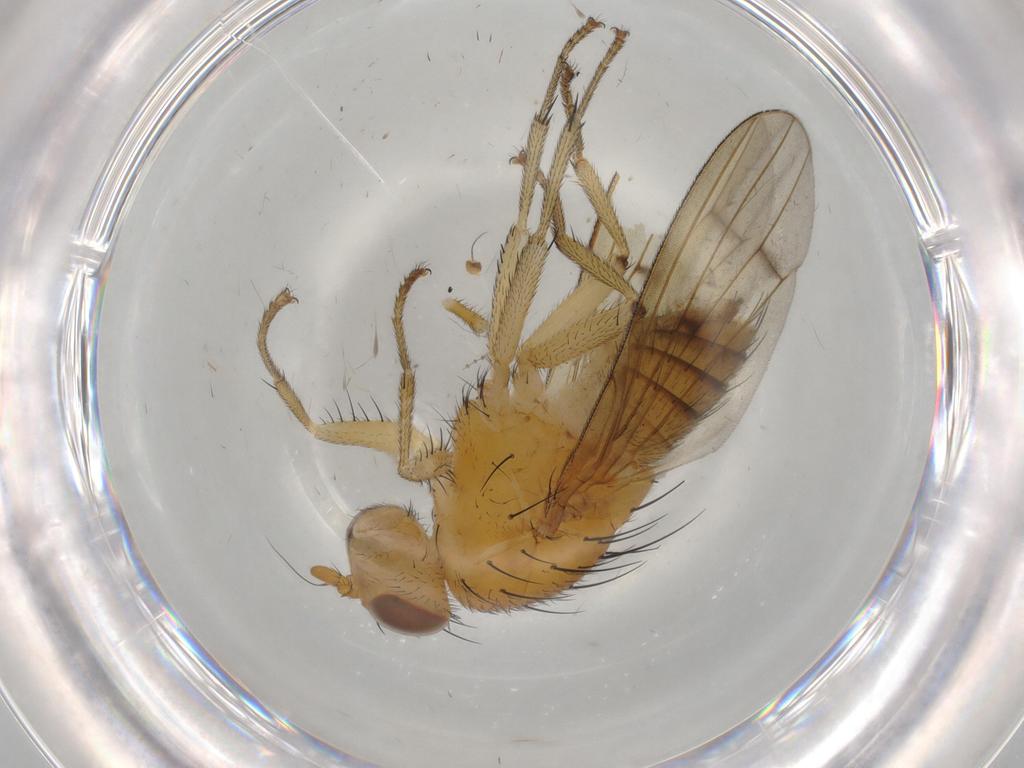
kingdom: Animalia
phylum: Arthropoda
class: Insecta
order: Diptera
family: Phoridae
